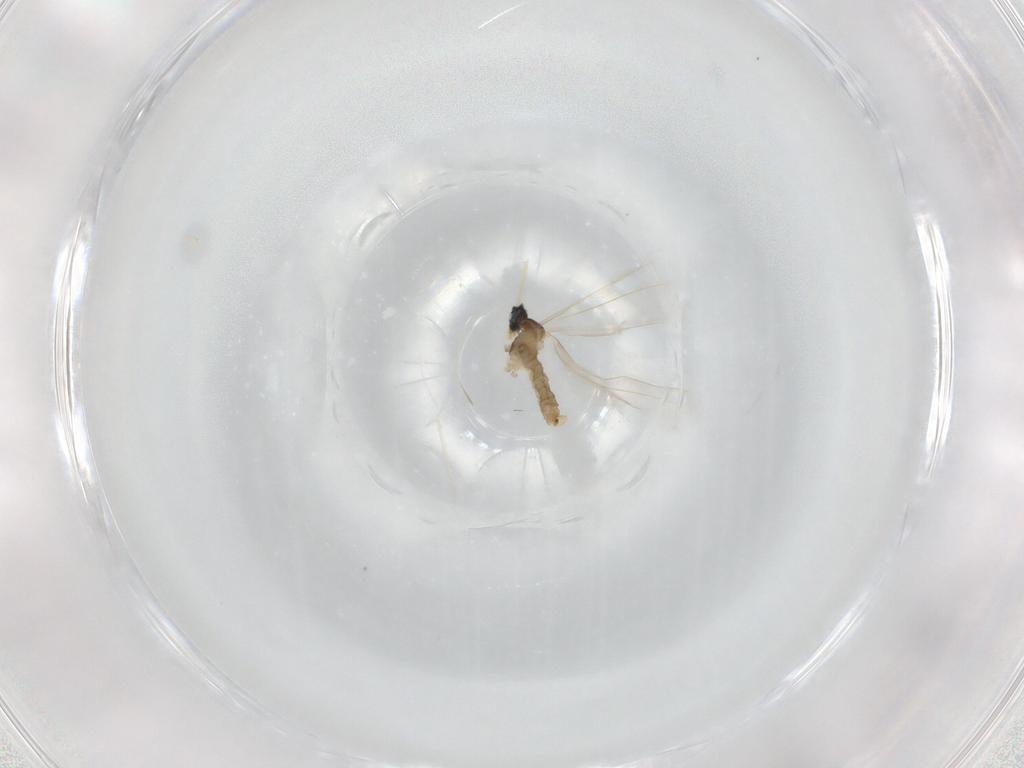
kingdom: Animalia
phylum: Arthropoda
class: Insecta
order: Diptera
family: Cecidomyiidae
